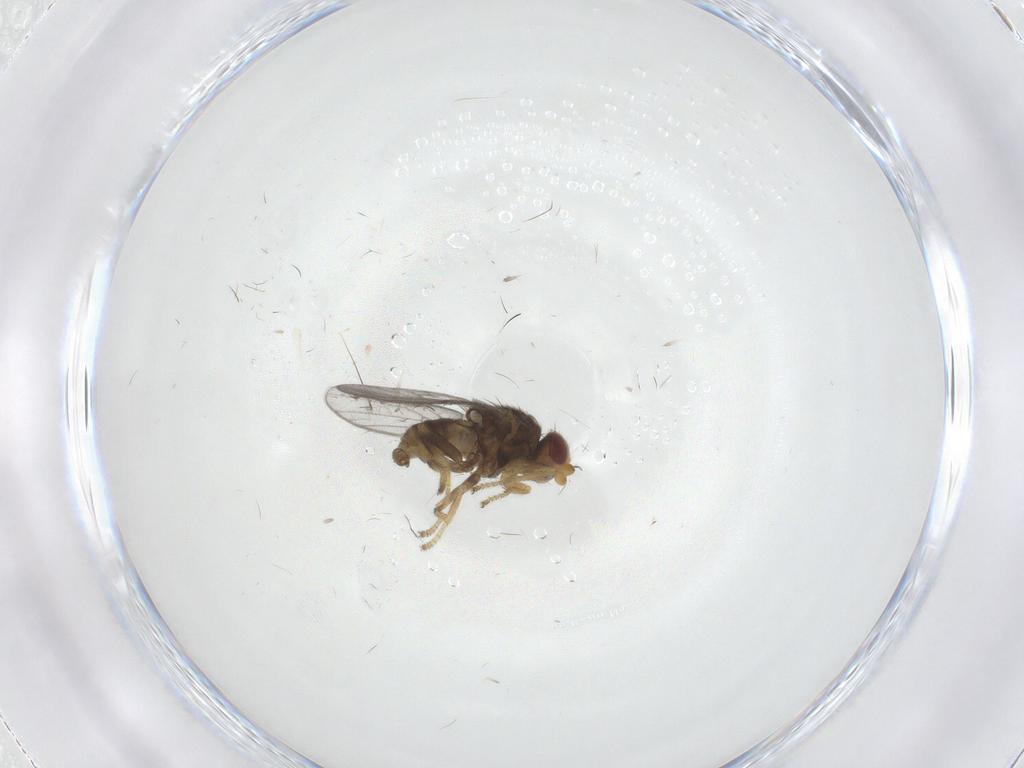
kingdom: Animalia
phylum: Arthropoda
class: Insecta
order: Diptera
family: Chloropidae
